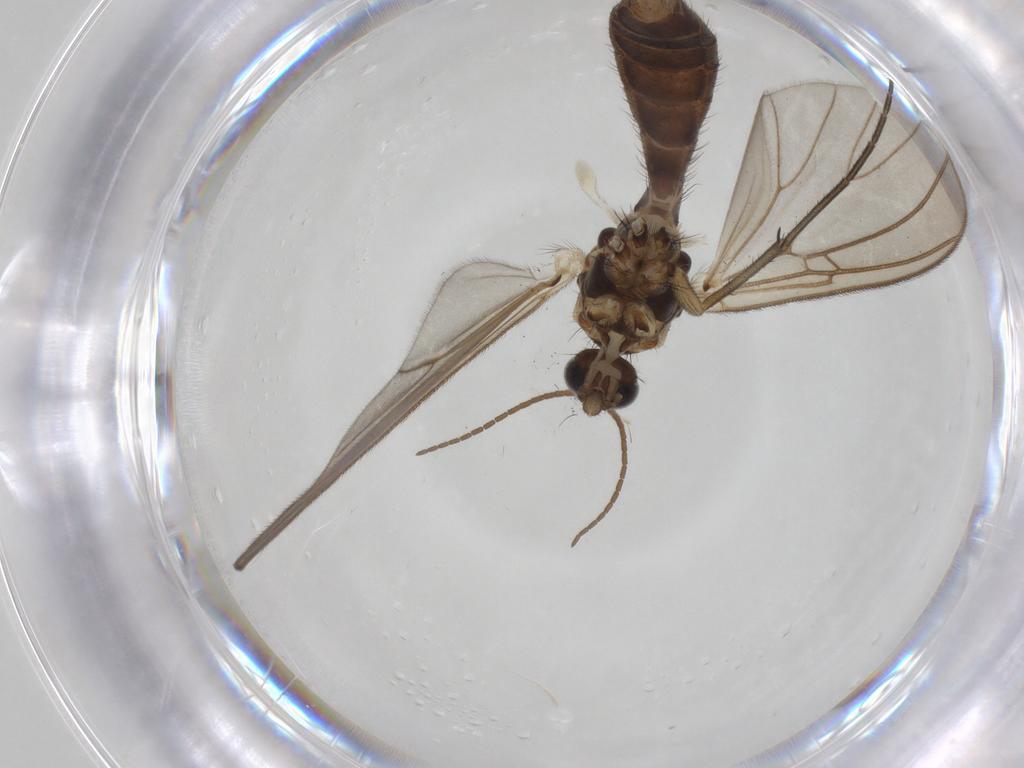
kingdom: Animalia
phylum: Arthropoda
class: Insecta
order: Diptera
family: Mycetophilidae
